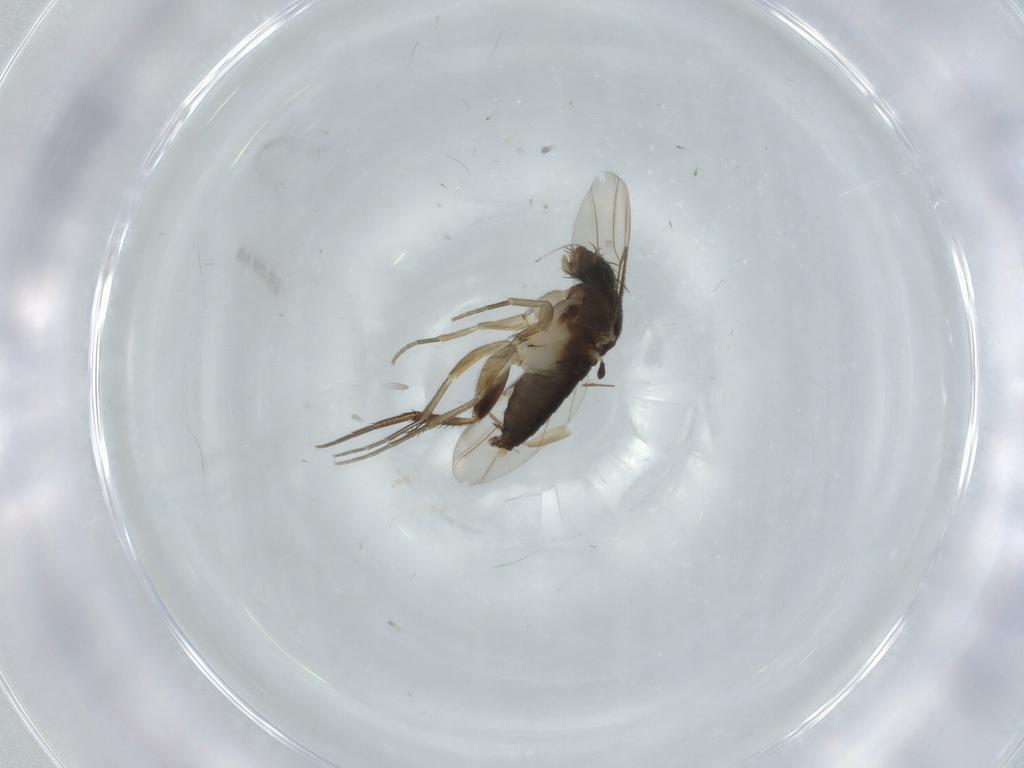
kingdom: Animalia
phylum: Arthropoda
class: Insecta
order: Diptera
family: Phoridae
